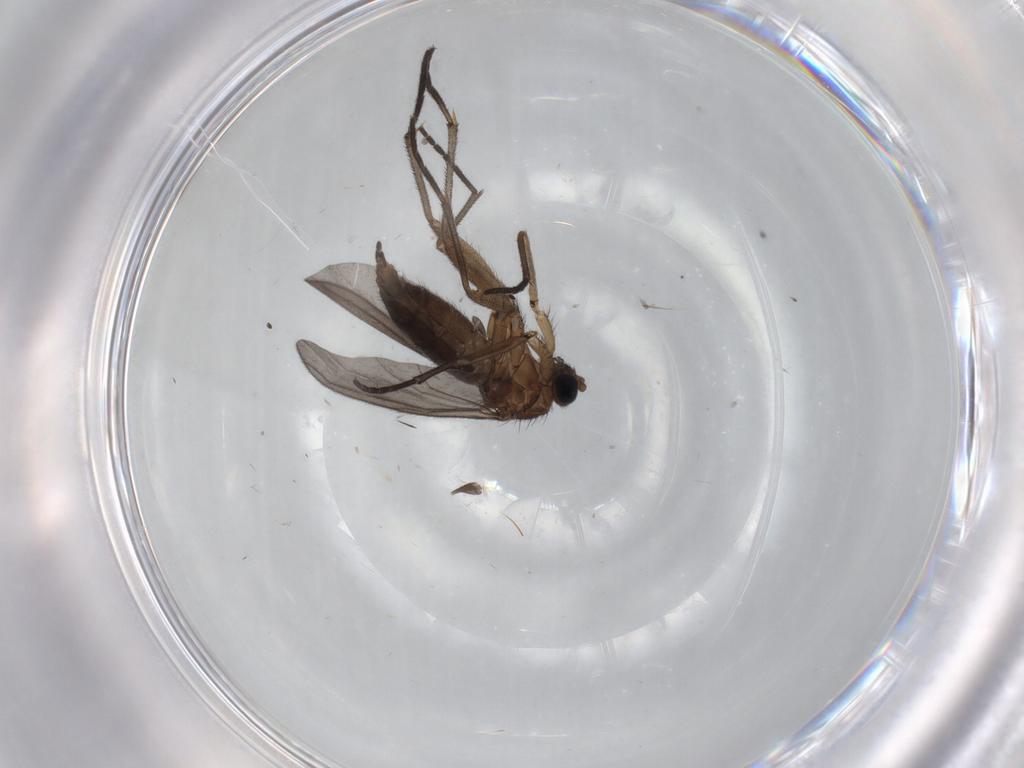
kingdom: Animalia
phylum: Arthropoda
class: Insecta
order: Diptera
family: Sciaridae
